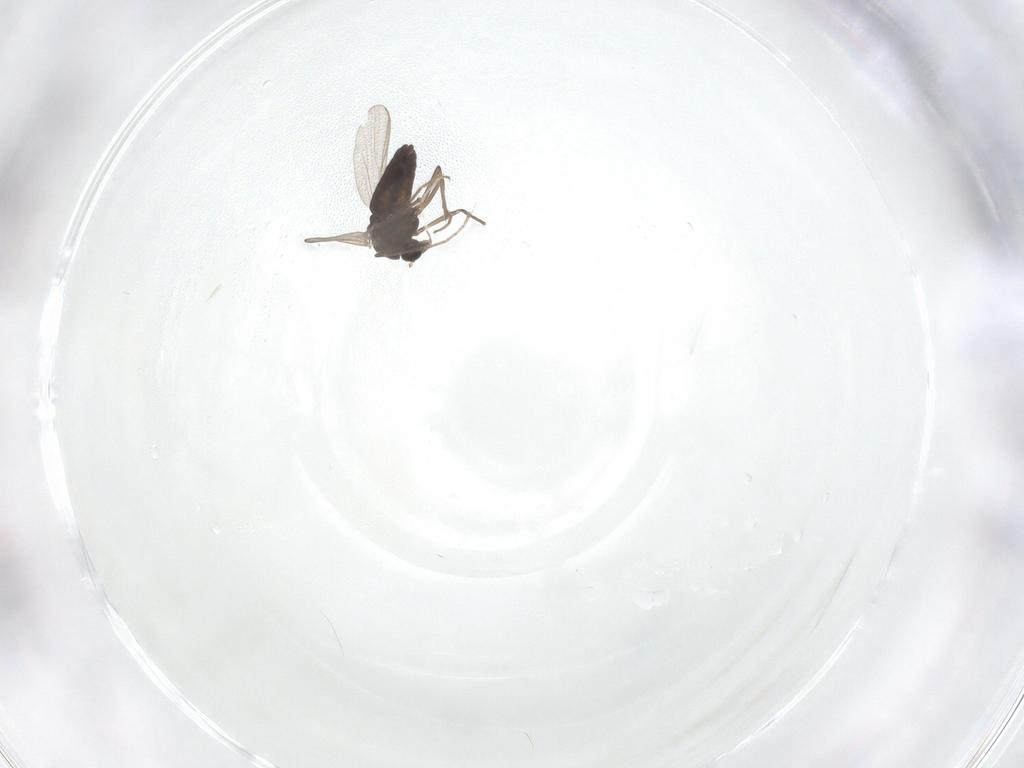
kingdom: Animalia
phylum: Arthropoda
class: Insecta
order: Diptera
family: Chironomidae
